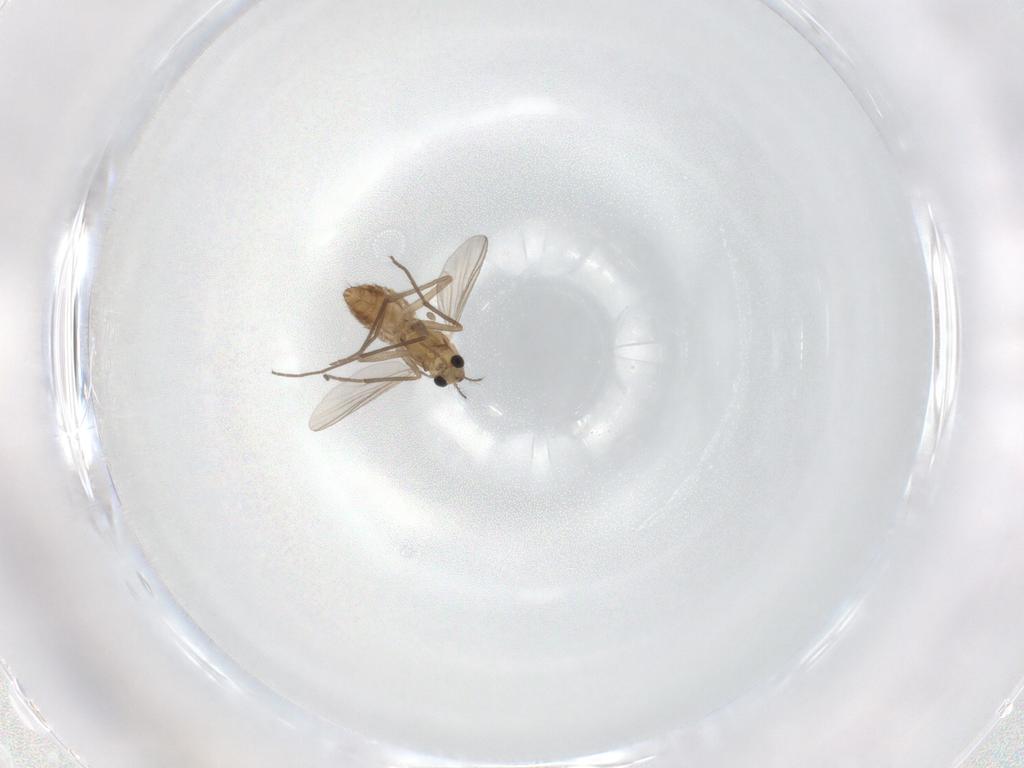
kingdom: Animalia
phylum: Arthropoda
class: Insecta
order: Diptera
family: Chironomidae
